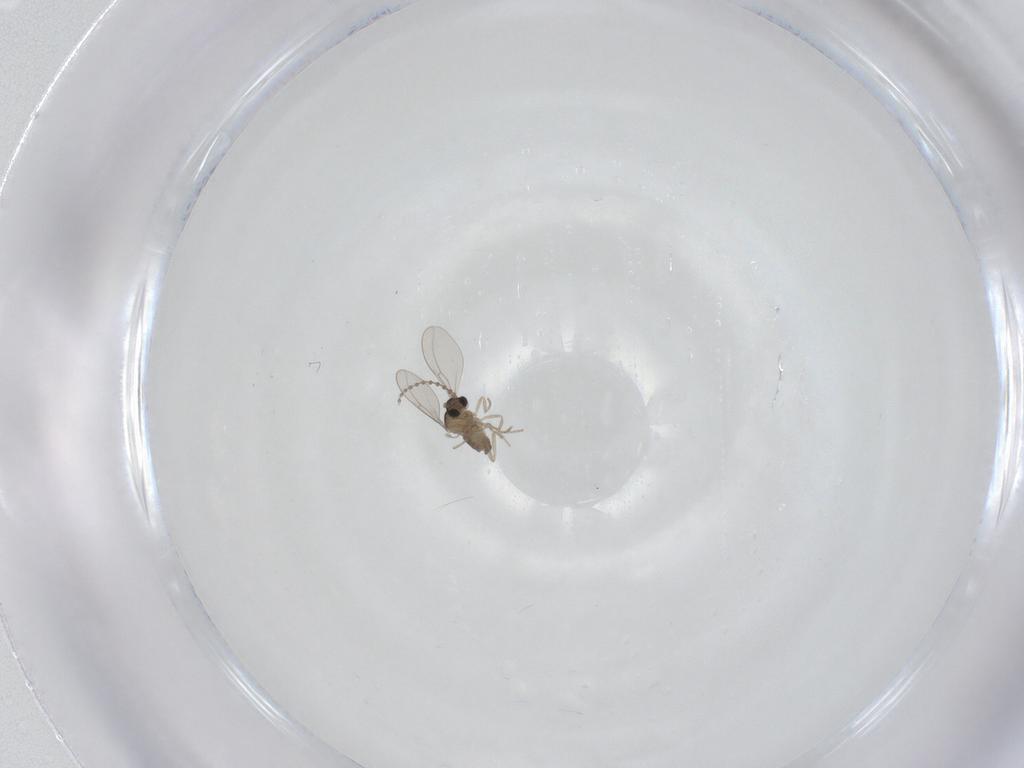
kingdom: Animalia
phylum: Arthropoda
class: Insecta
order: Diptera
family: Cecidomyiidae
